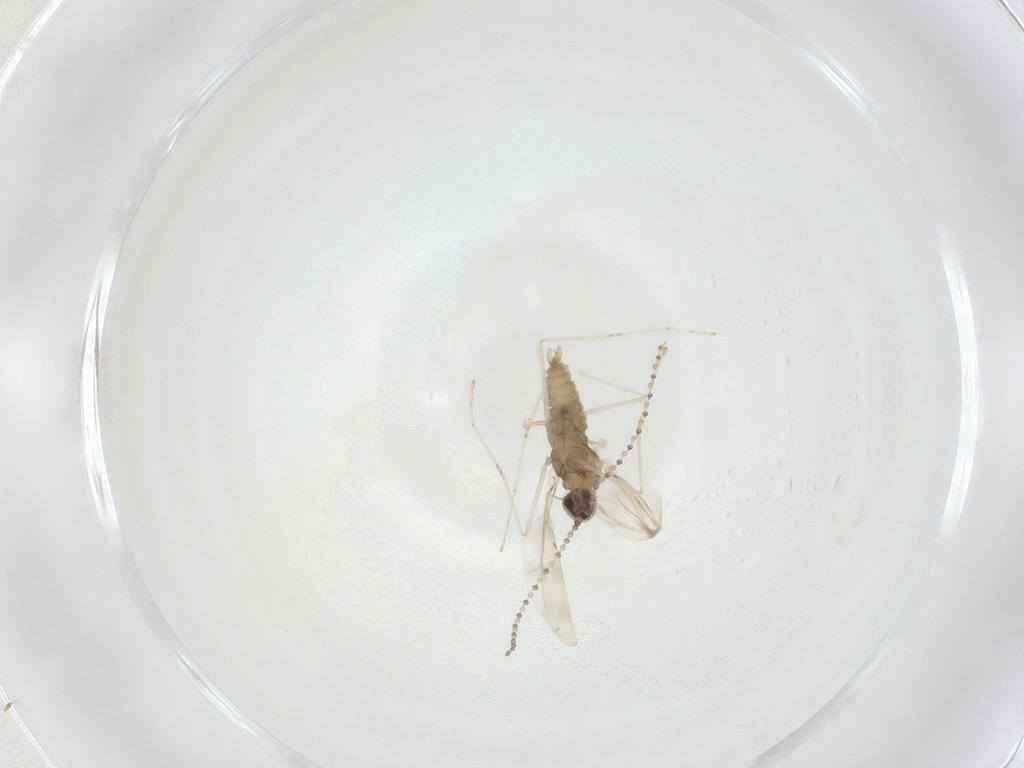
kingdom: Animalia
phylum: Arthropoda
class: Insecta
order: Diptera
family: Cecidomyiidae
